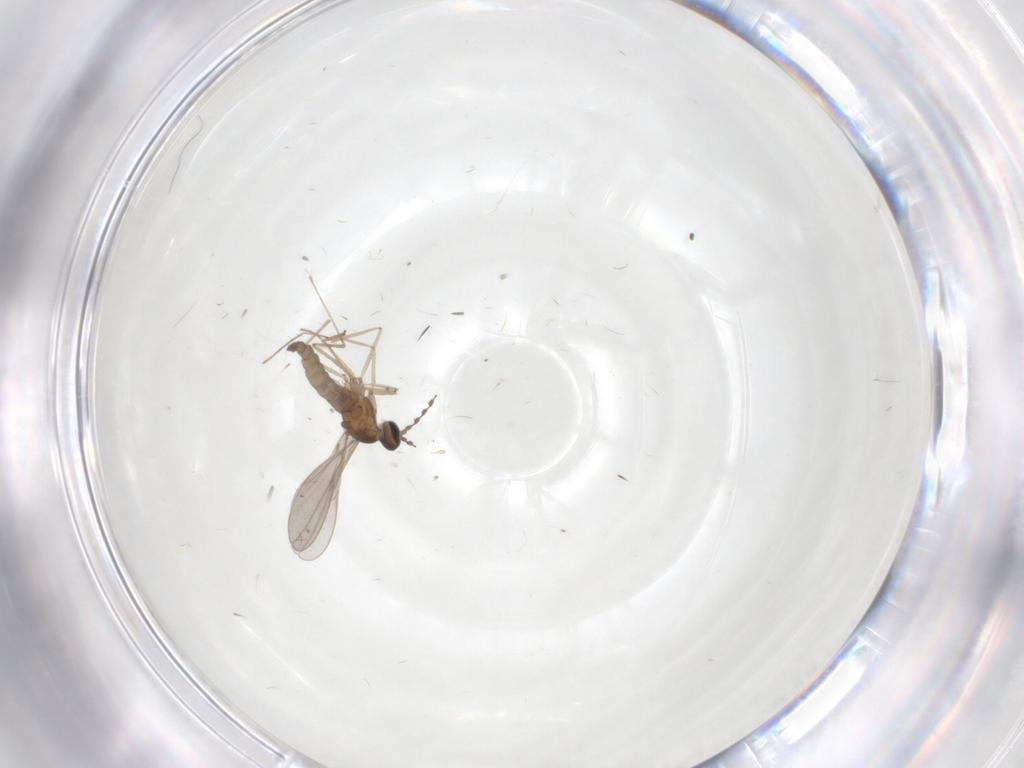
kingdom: Animalia
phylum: Arthropoda
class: Insecta
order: Diptera
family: Cecidomyiidae
